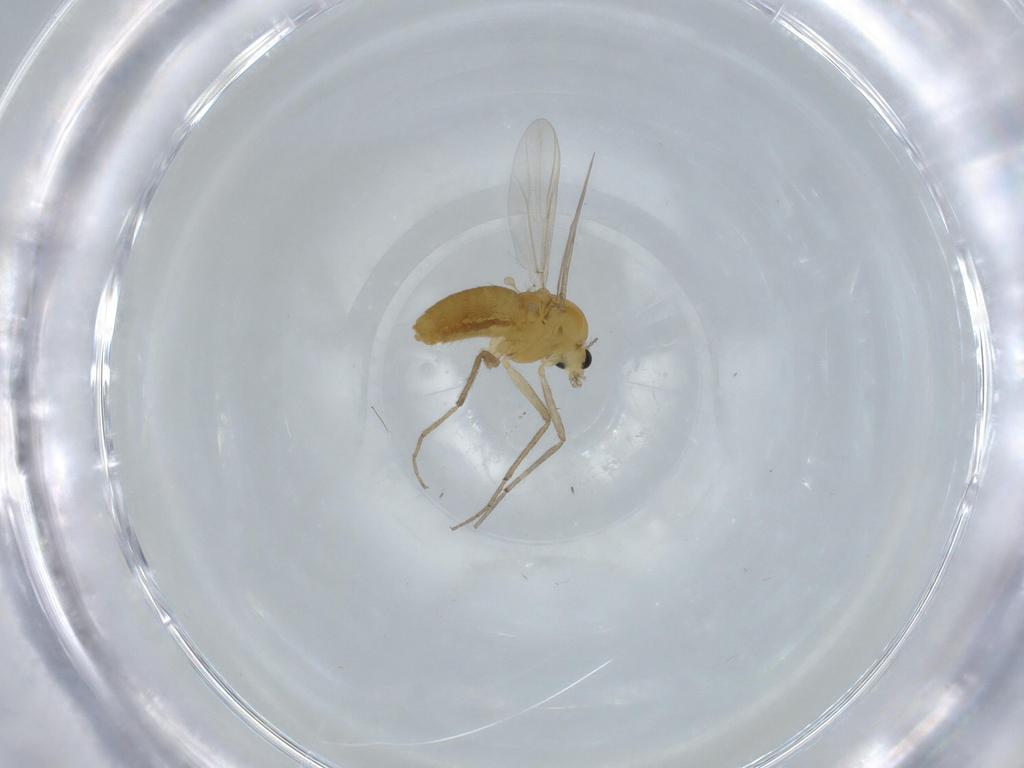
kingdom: Animalia
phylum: Arthropoda
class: Insecta
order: Diptera
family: Chironomidae
